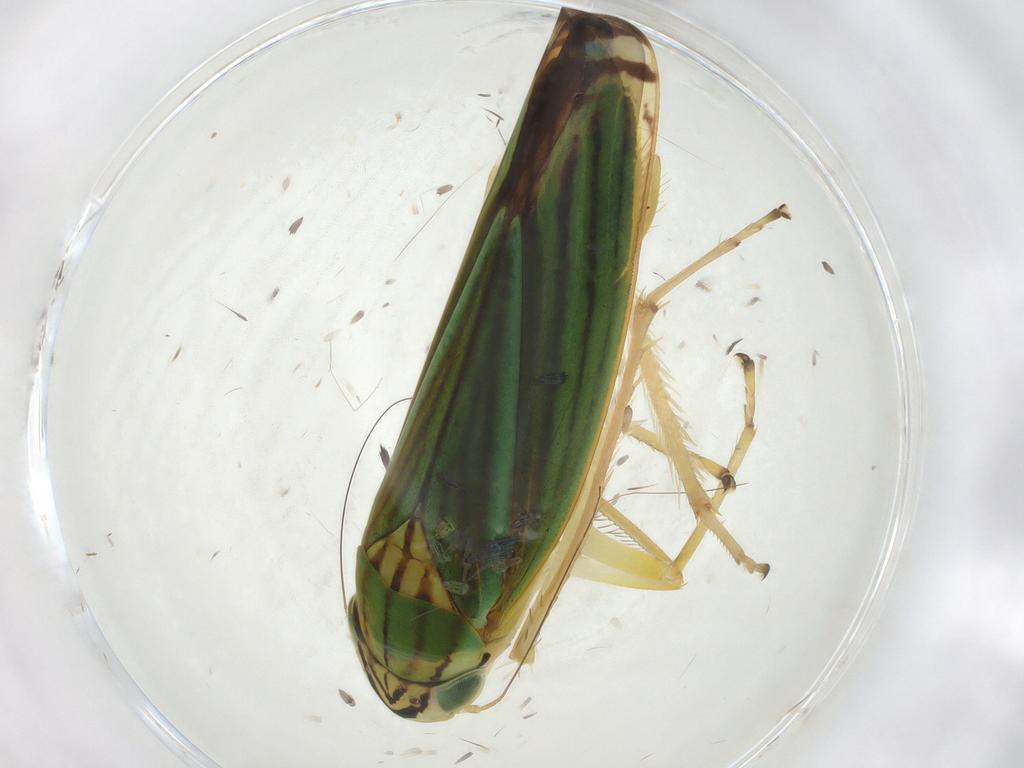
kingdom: Animalia
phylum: Arthropoda
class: Insecta
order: Hemiptera
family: Cicadellidae
